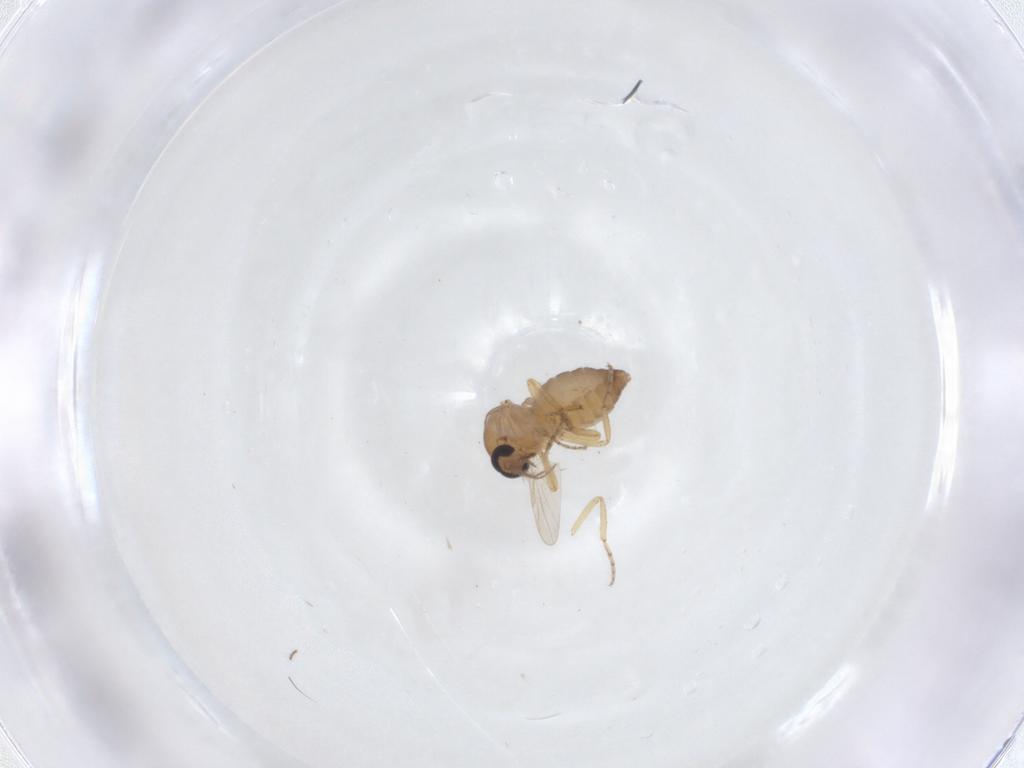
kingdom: Animalia
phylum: Arthropoda
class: Insecta
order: Diptera
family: Ceratopogonidae
